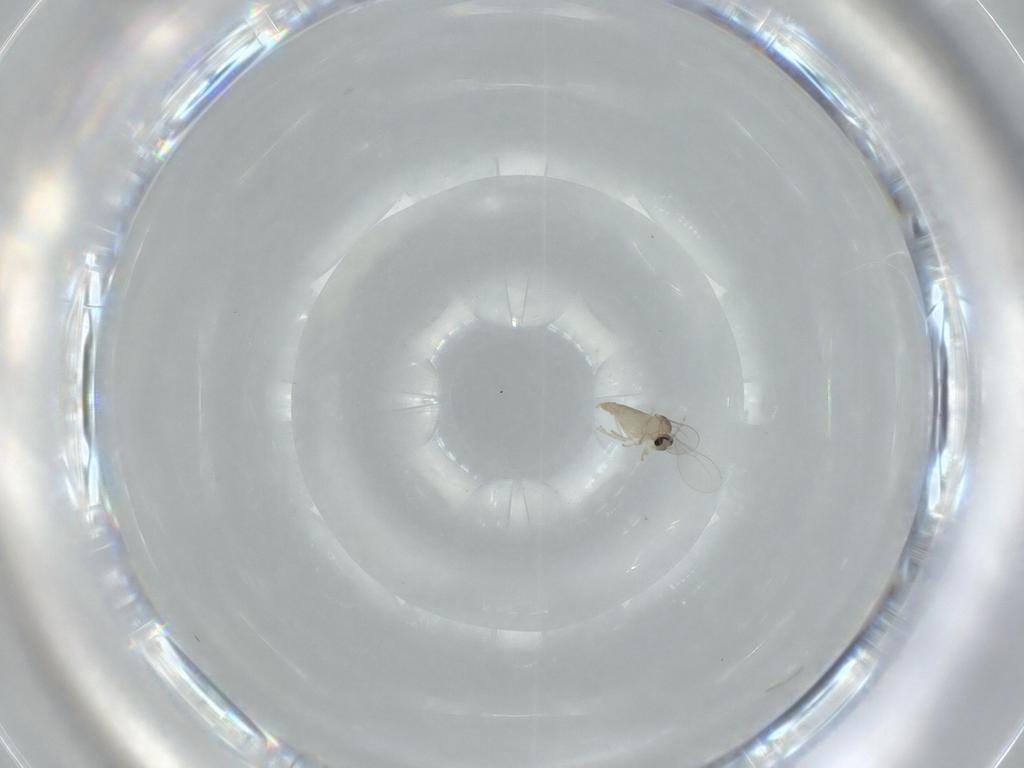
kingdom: Animalia
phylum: Arthropoda
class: Insecta
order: Diptera
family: Cecidomyiidae
